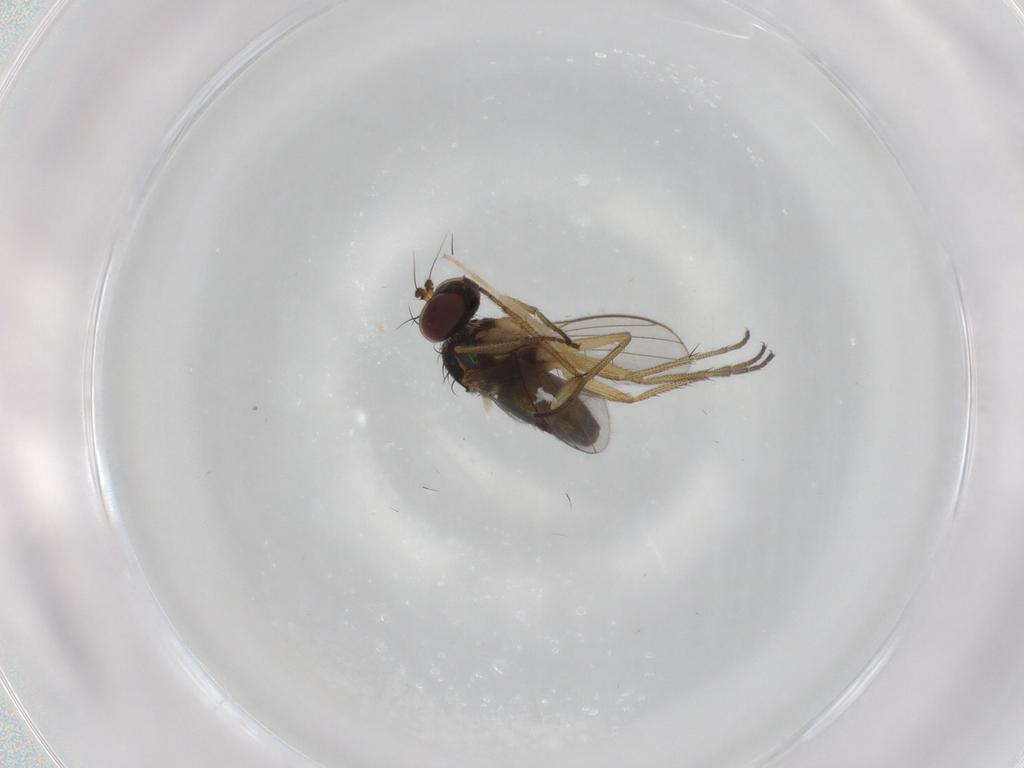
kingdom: Animalia
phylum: Arthropoda
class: Insecta
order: Diptera
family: Chironomidae
